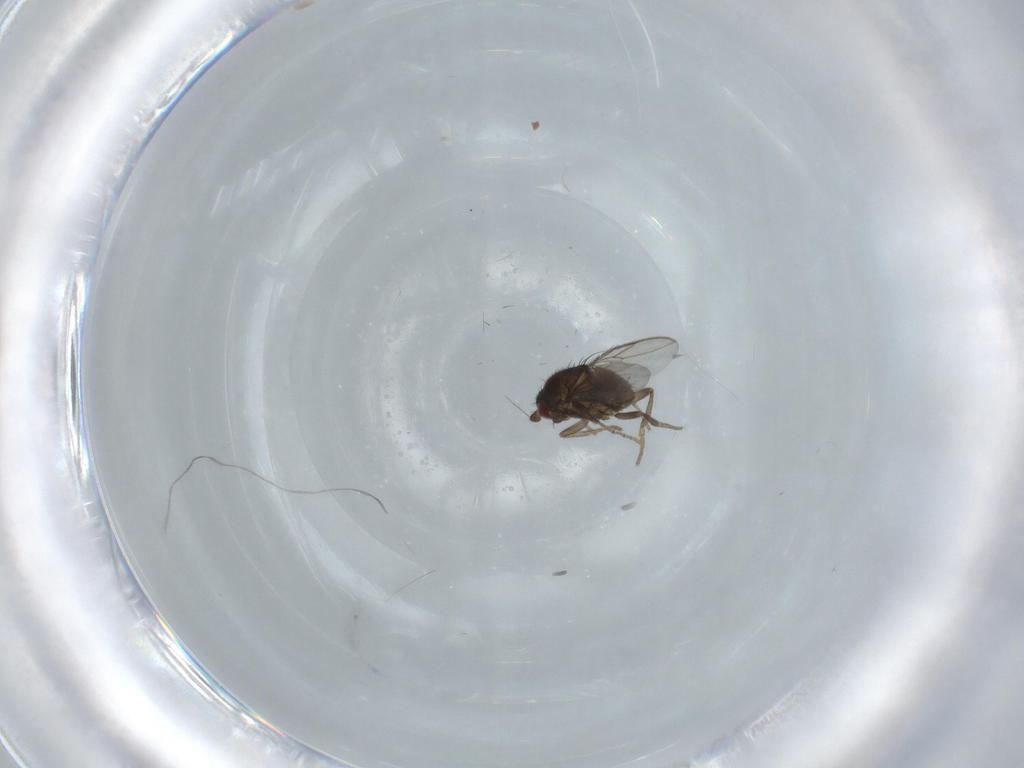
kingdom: Animalia
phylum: Arthropoda
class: Insecta
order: Diptera
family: Sphaeroceridae
